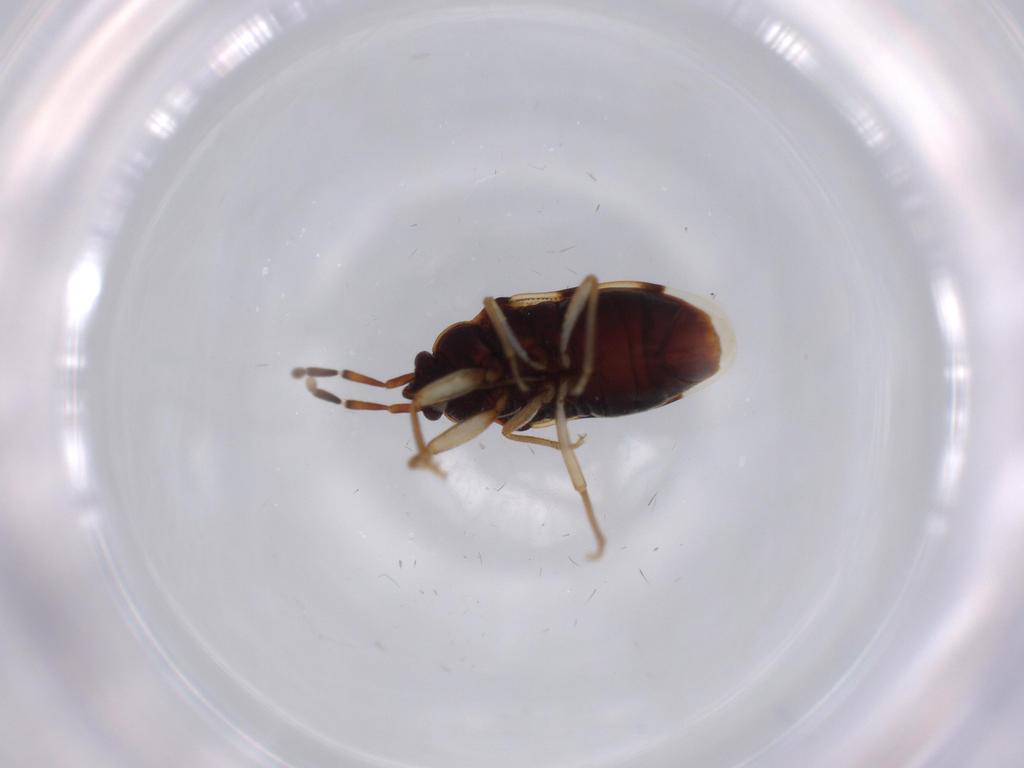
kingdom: Animalia
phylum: Arthropoda
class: Insecta
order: Hemiptera
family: Rhyparochromidae
